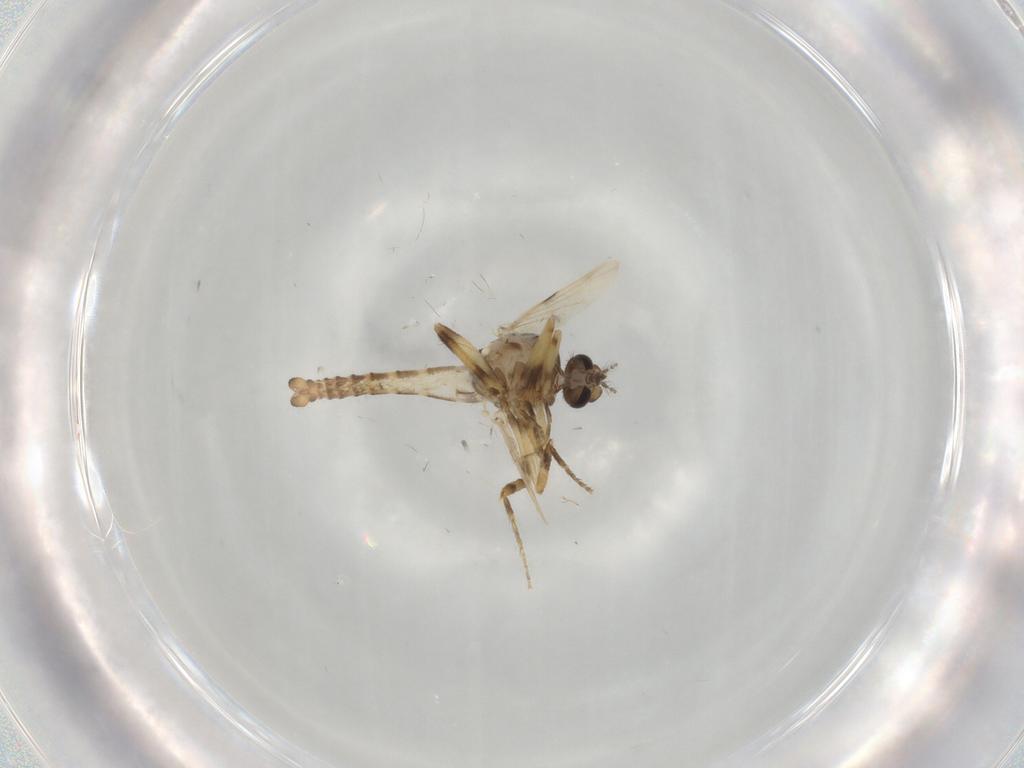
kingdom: Animalia
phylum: Arthropoda
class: Insecta
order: Diptera
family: Ceratopogonidae
